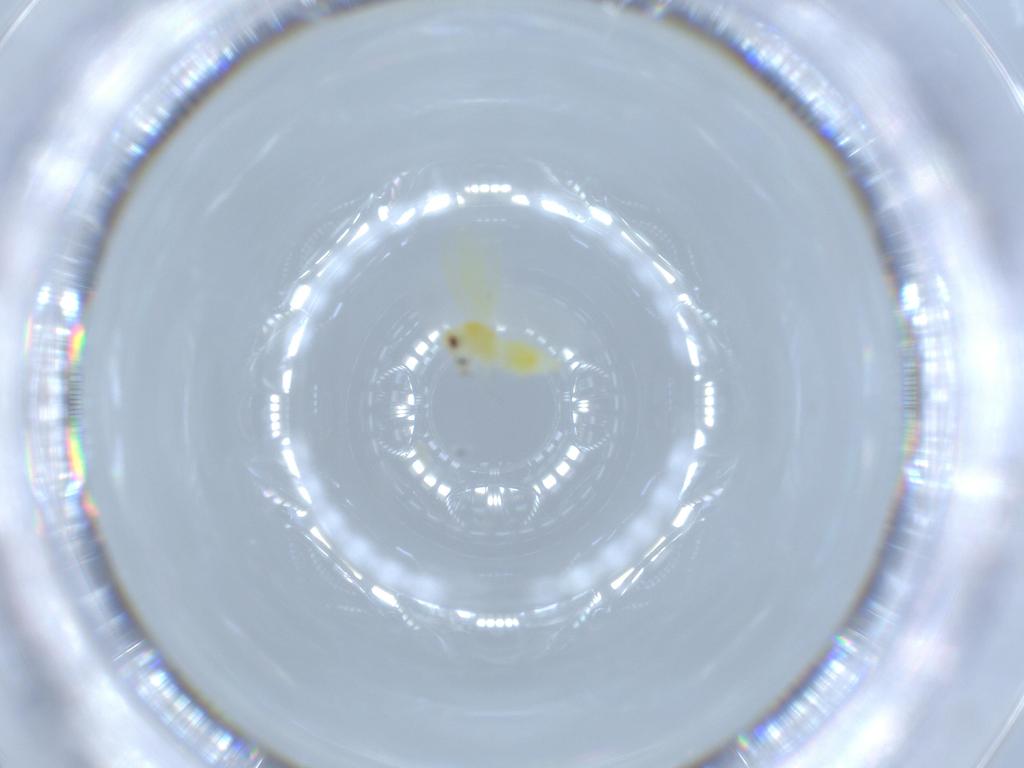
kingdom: Animalia
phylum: Arthropoda
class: Insecta
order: Hemiptera
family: Aleyrodidae
